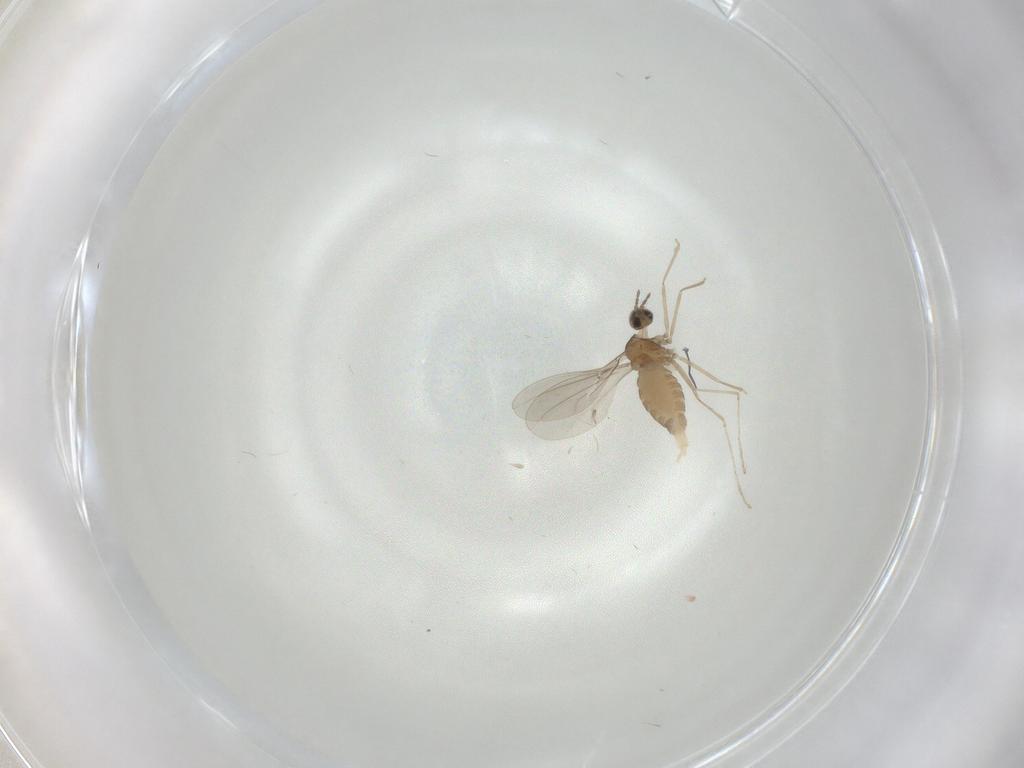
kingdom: Animalia
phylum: Arthropoda
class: Insecta
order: Diptera
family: Cecidomyiidae
